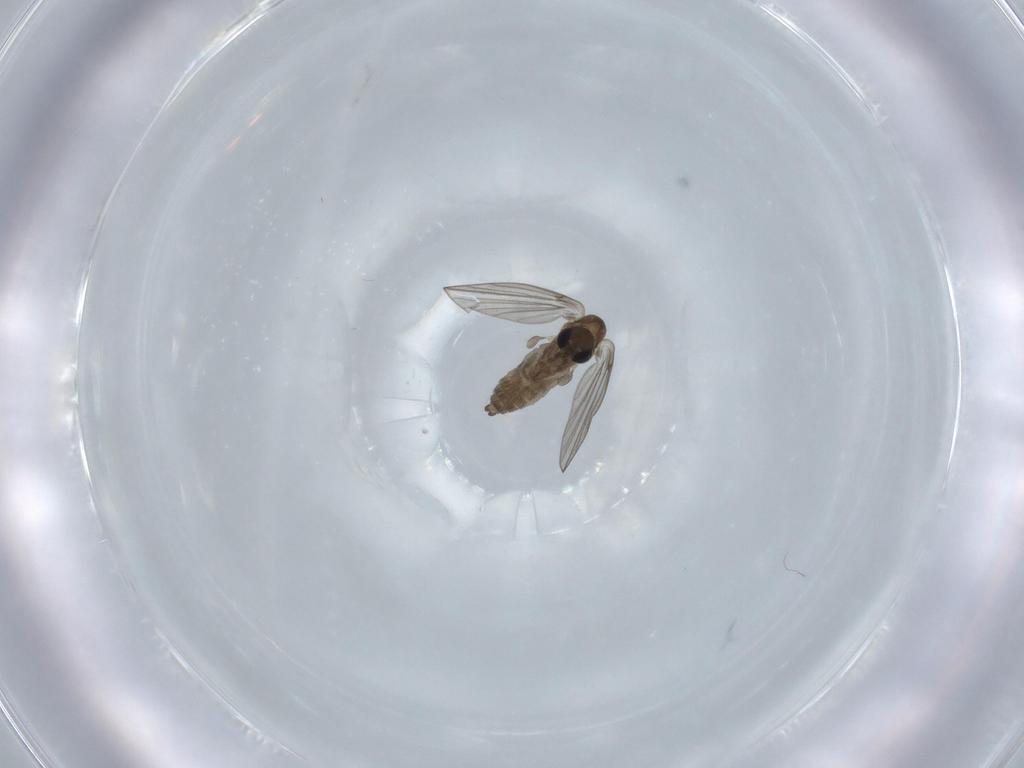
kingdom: Animalia
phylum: Arthropoda
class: Insecta
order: Diptera
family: Psychodidae
